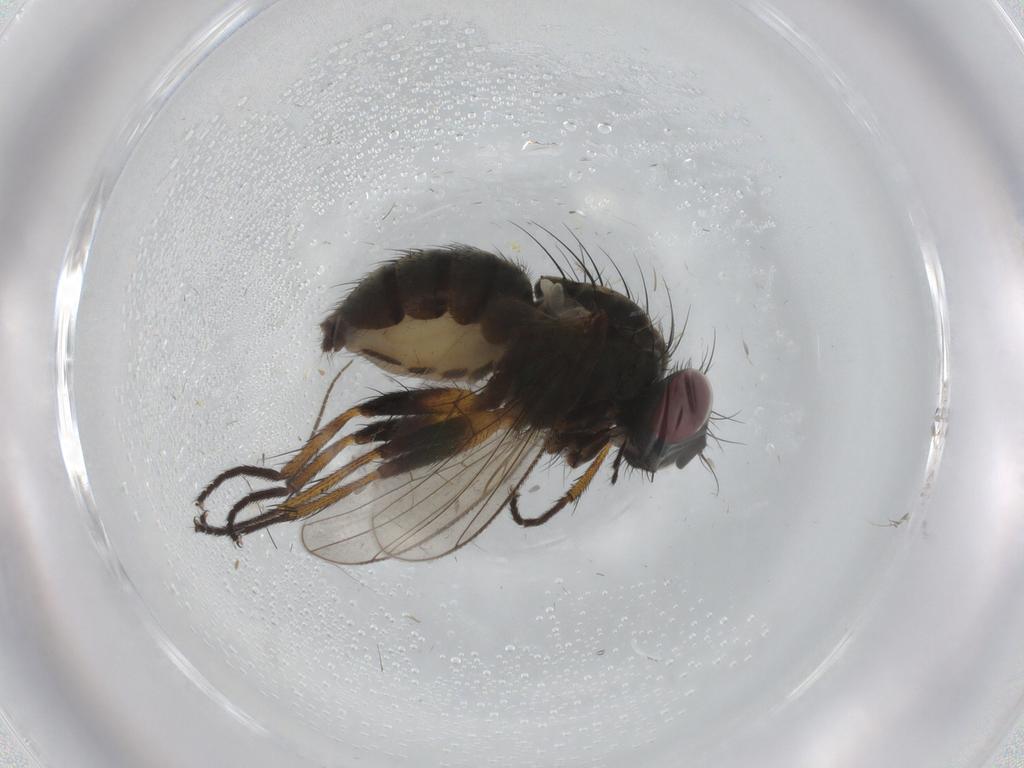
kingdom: Animalia
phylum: Arthropoda
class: Insecta
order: Diptera
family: Muscidae
